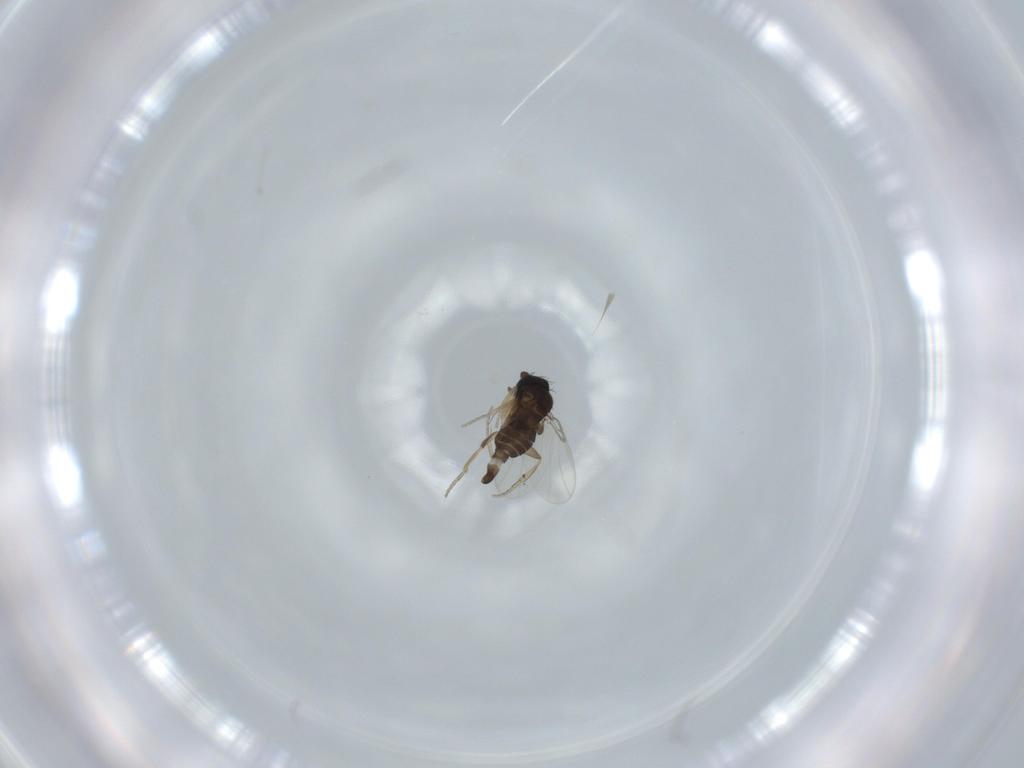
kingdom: Animalia
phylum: Arthropoda
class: Insecta
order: Diptera
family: Phoridae
